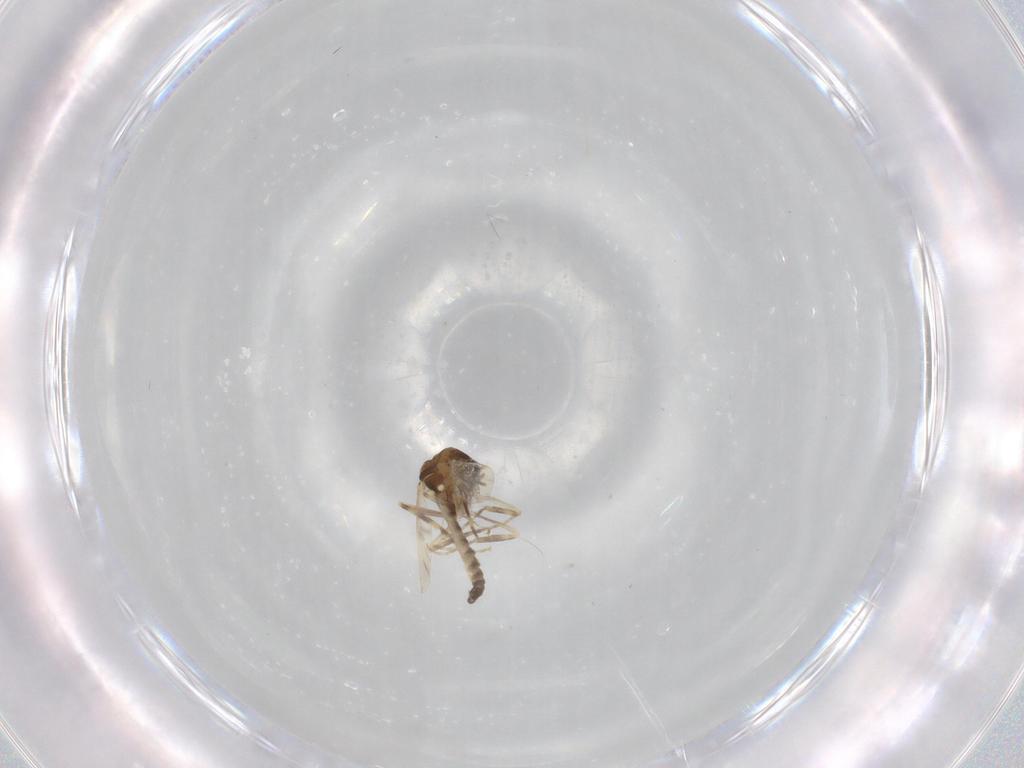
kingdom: Animalia
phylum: Arthropoda
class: Insecta
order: Diptera
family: Ceratopogonidae
